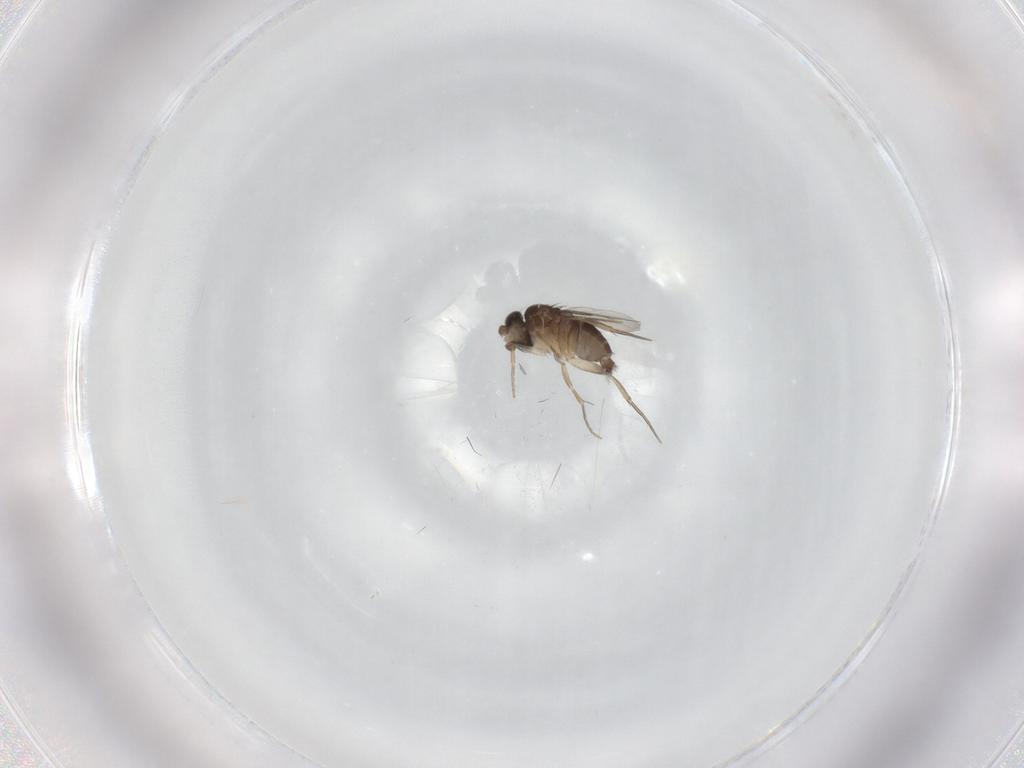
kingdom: Animalia
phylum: Arthropoda
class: Insecta
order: Diptera
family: Phoridae
